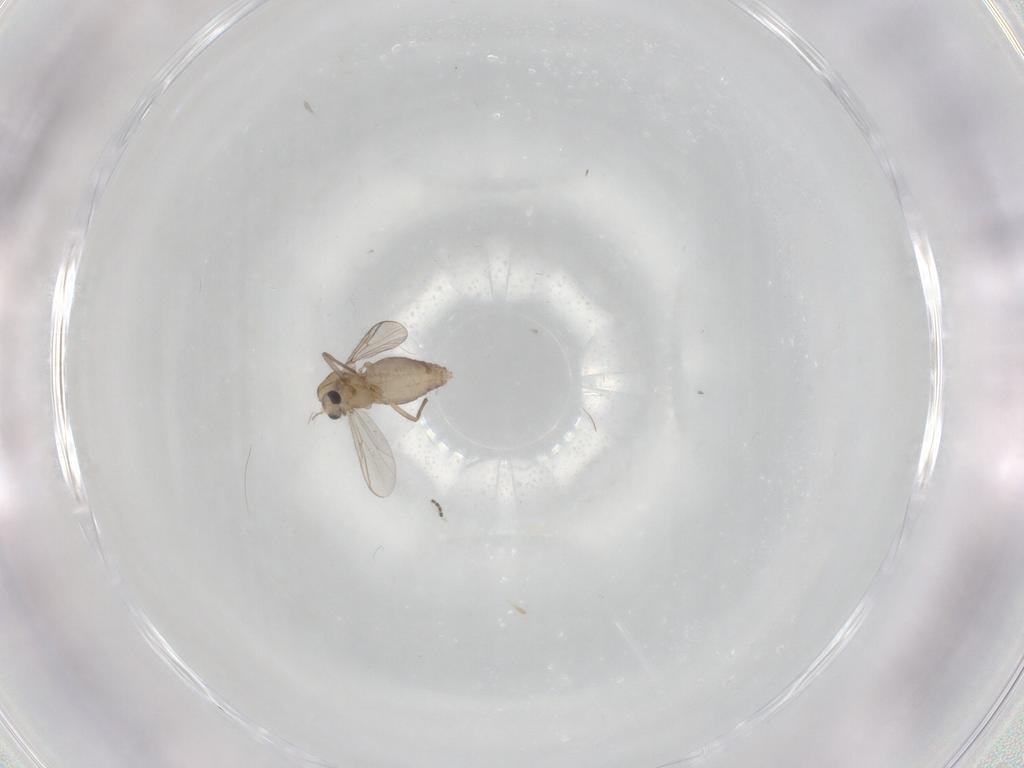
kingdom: Animalia
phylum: Arthropoda
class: Insecta
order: Diptera
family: Chironomidae
